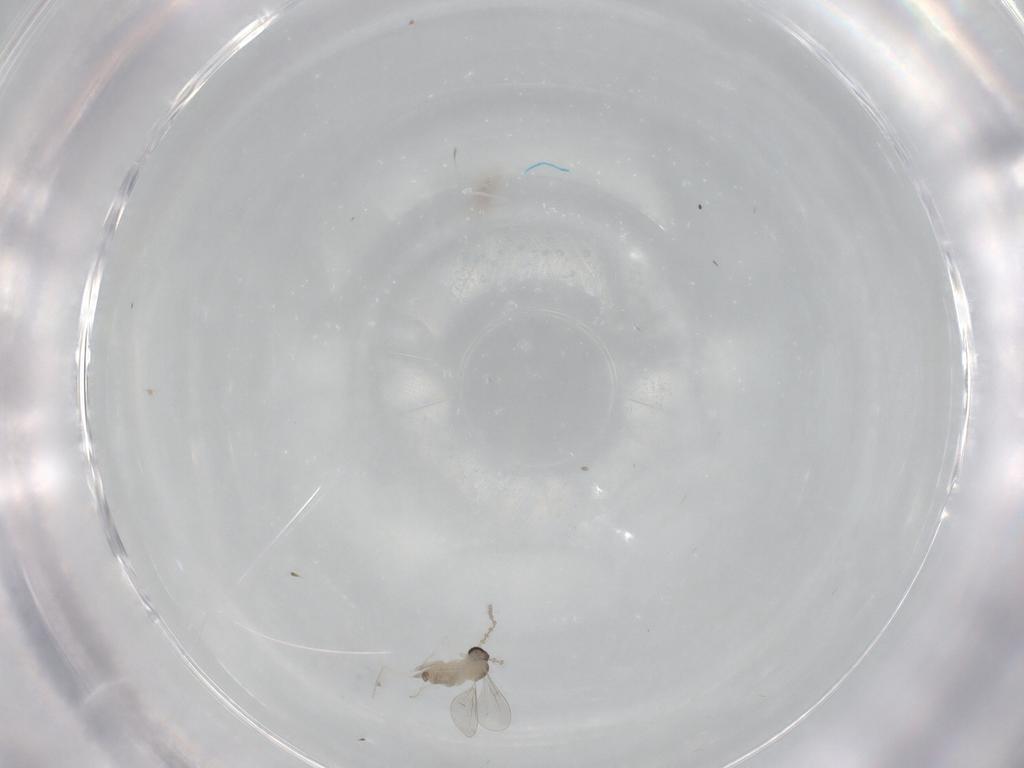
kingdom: Animalia
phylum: Arthropoda
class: Insecta
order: Diptera
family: Cecidomyiidae
